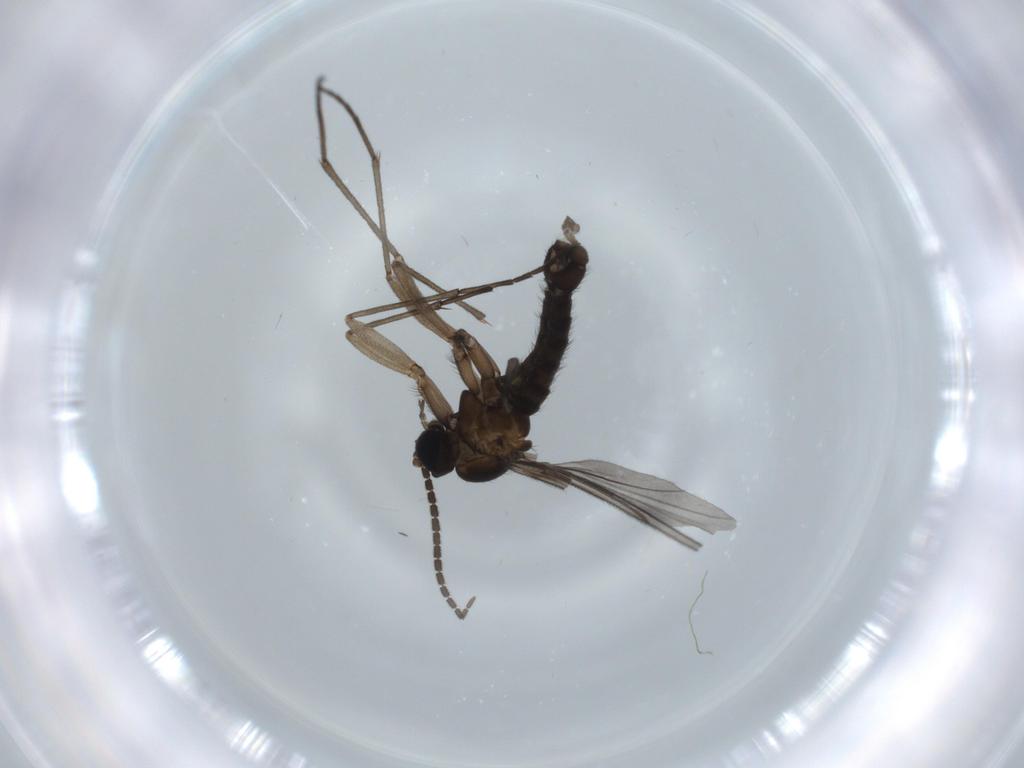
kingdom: Animalia
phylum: Arthropoda
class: Insecta
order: Diptera
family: Sciaridae
